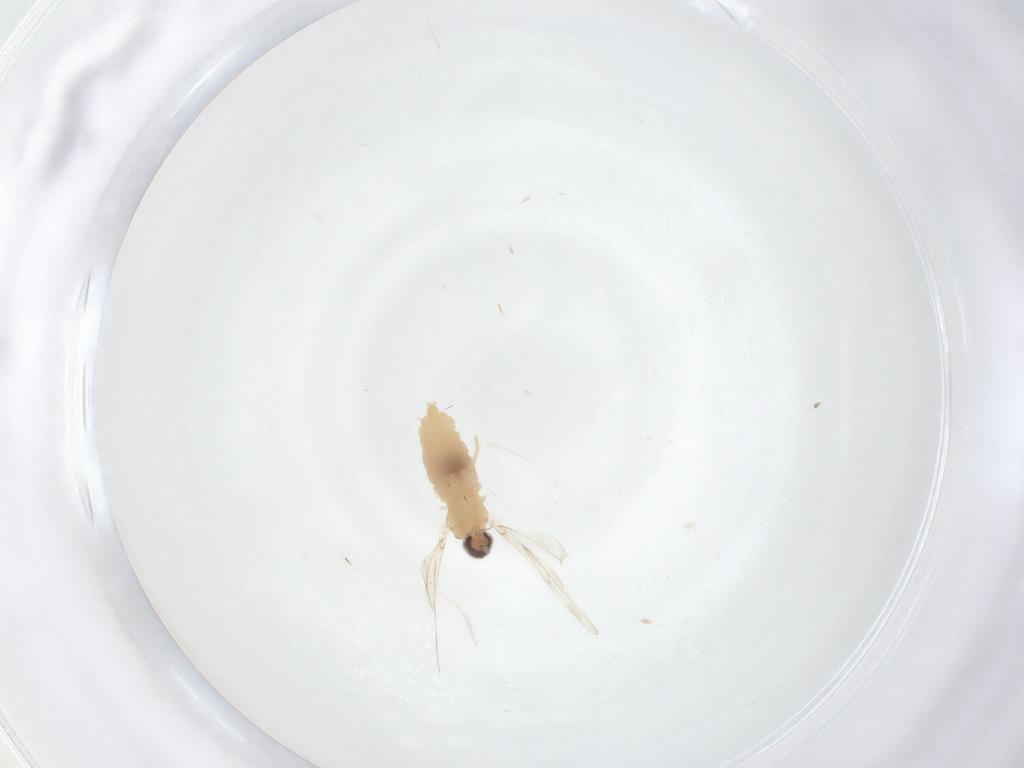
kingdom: Animalia
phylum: Arthropoda
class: Insecta
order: Diptera
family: Cecidomyiidae
